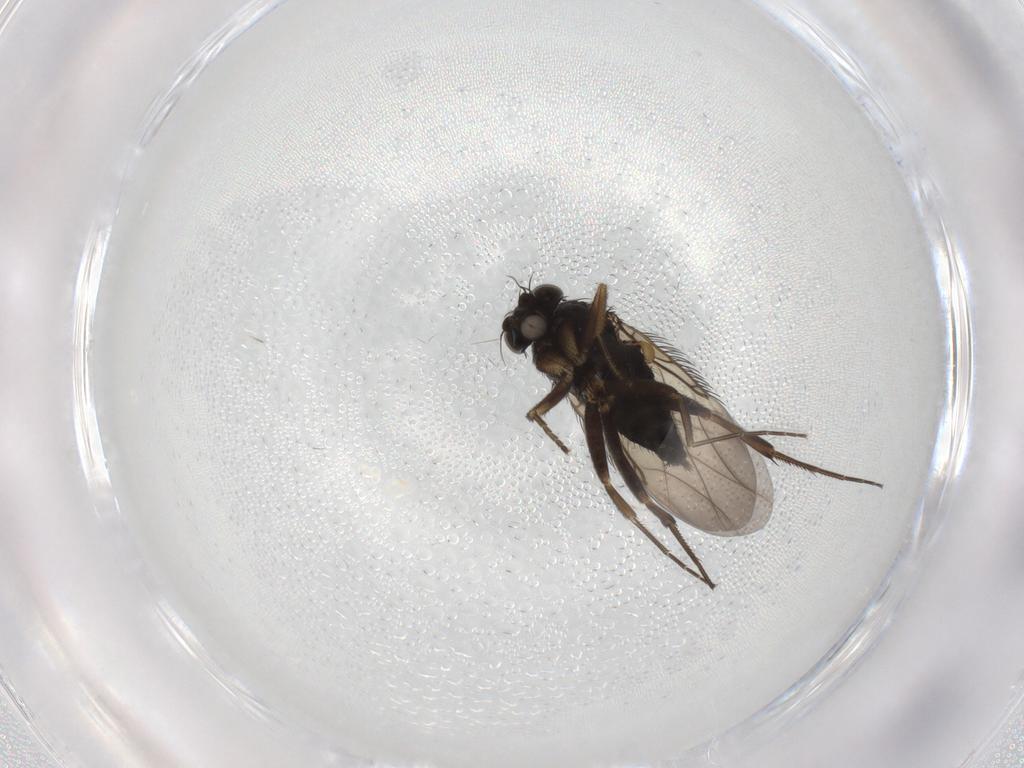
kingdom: Animalia
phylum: Arthropoda
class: Insecta
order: Diptera
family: Phoridae
